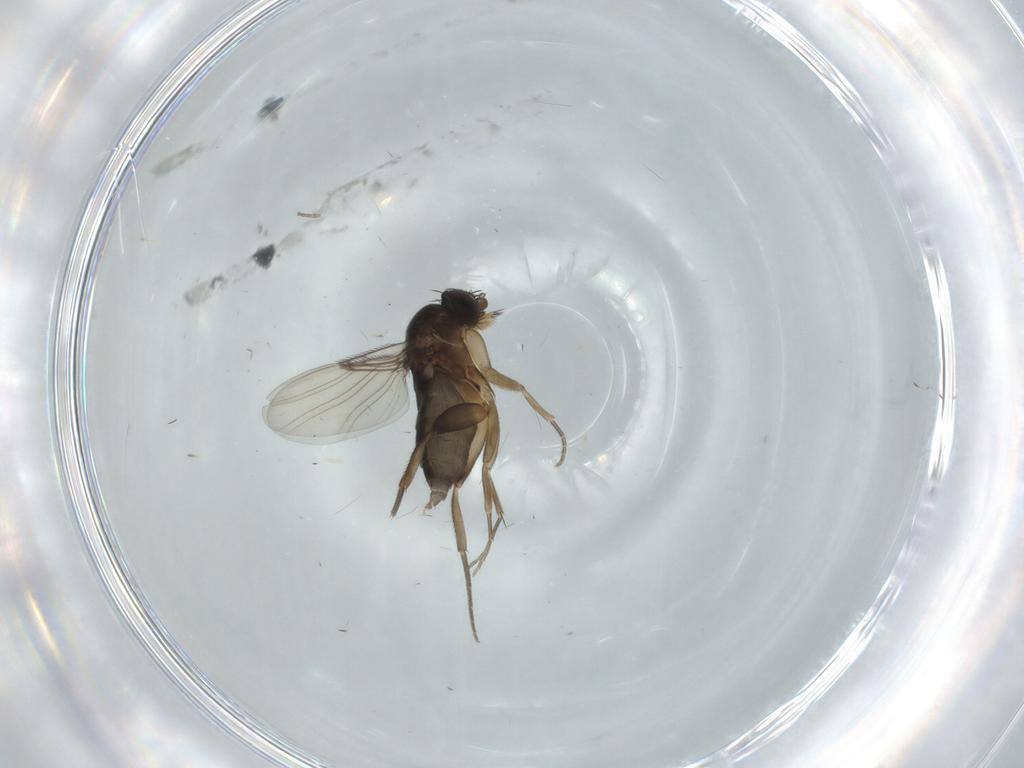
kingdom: Animalia
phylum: Arthropoda
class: Insecta
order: Diptera
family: Phoridae
